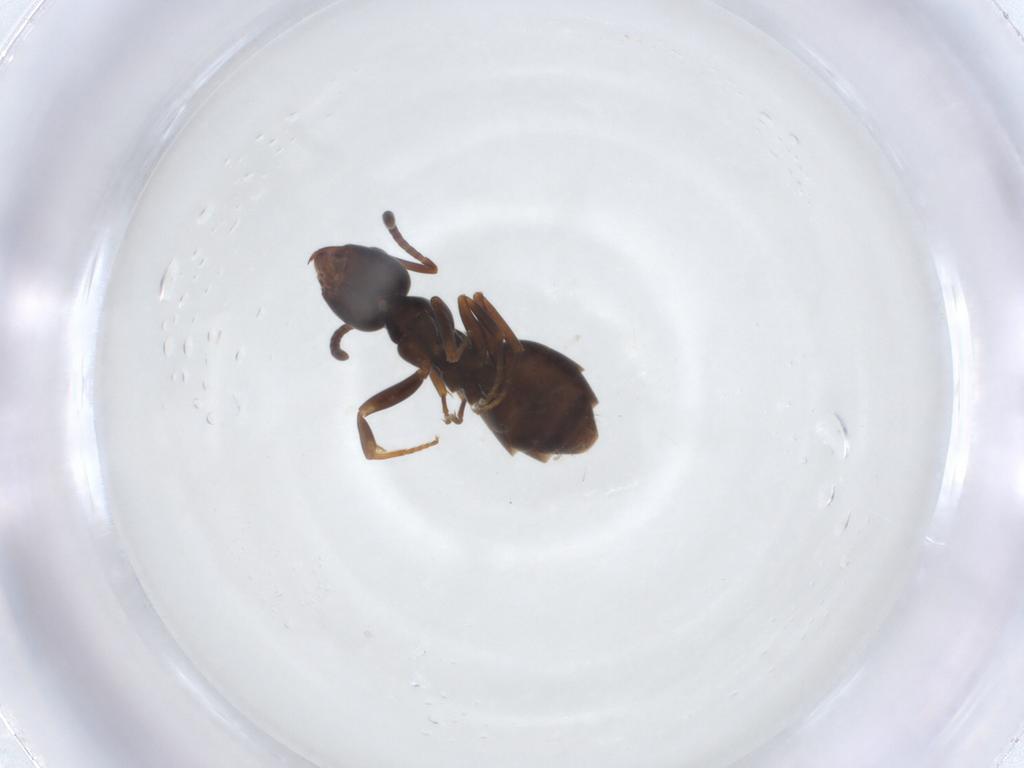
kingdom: Animalia
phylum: Arthropoda
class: Insecta
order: Hymenoptera
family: Formicidae
